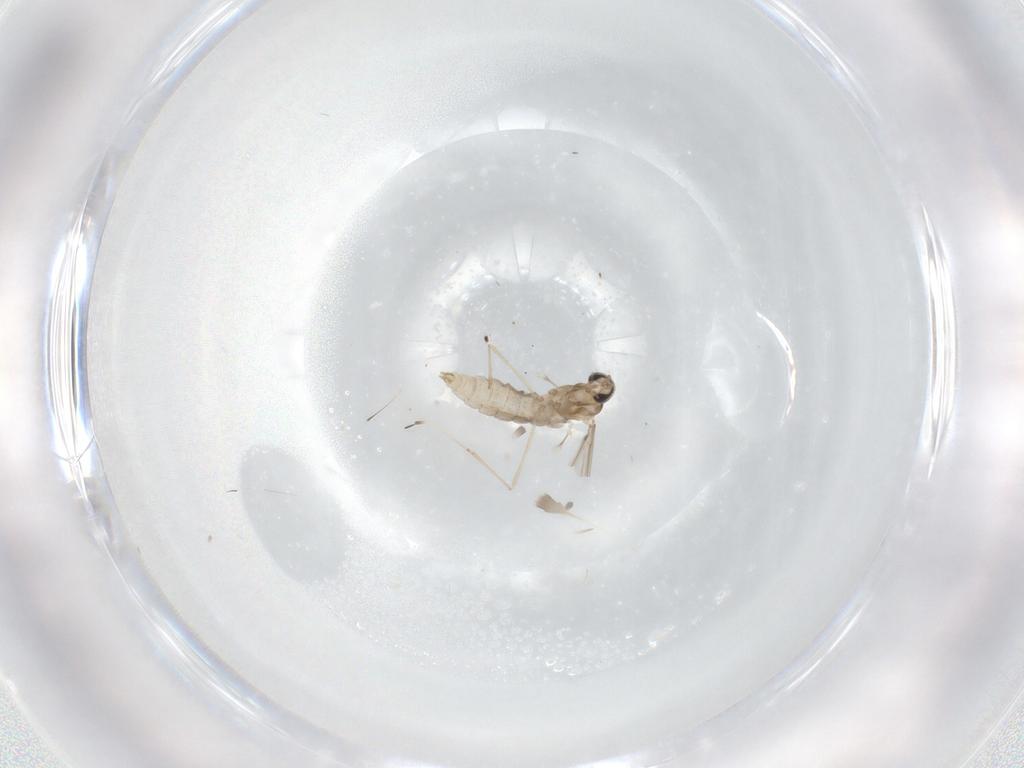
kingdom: Animalia
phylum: Arthropoda
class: Insecta
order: Diptera
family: Cecidomyiidae
